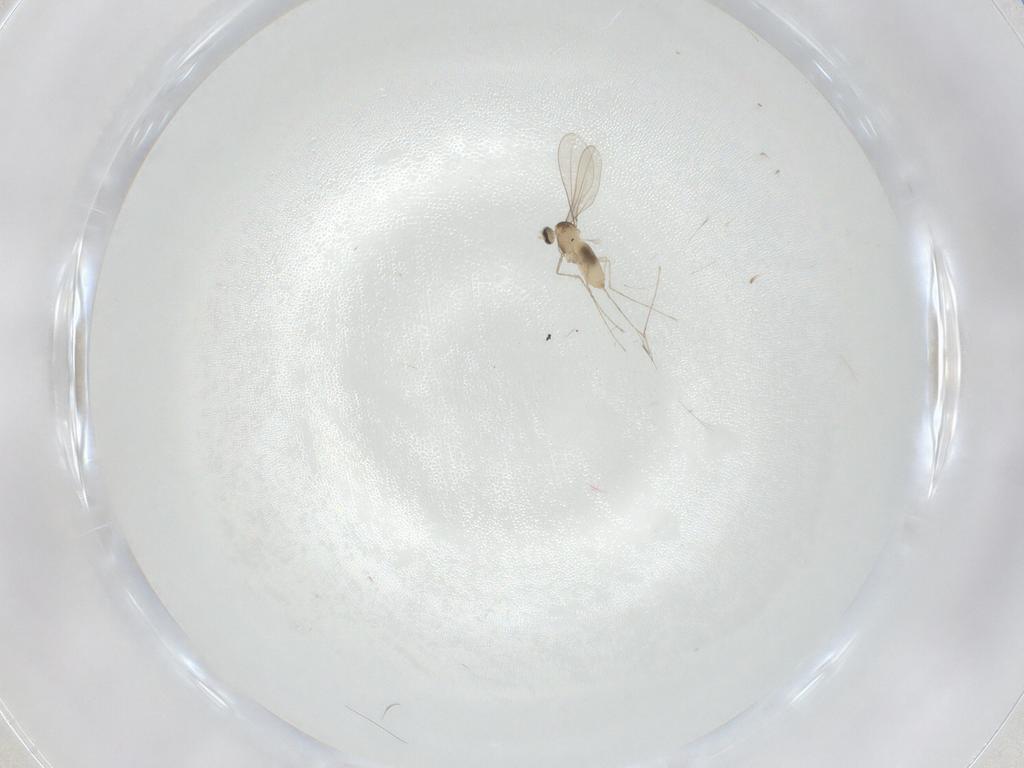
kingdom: Animalia
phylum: Arthropoda
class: Insecta
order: Diptera
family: Cecidomyiidae
